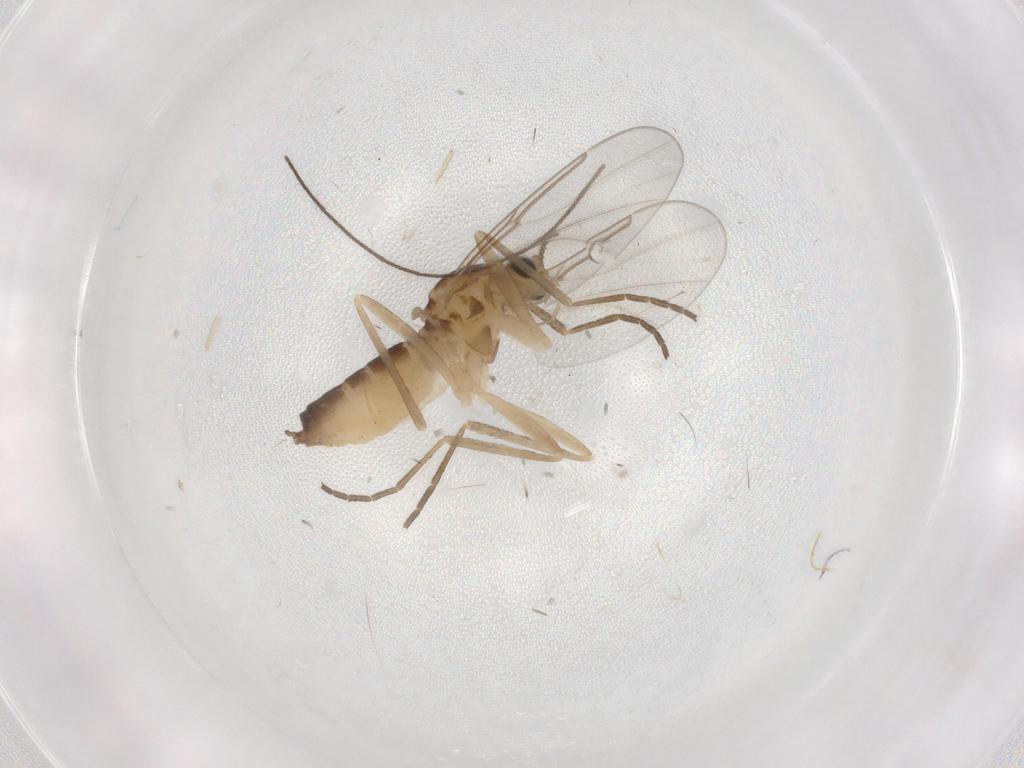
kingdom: Animalia
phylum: Arthropoda
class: Insecta
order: Diptera
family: Cecidomyiidae
